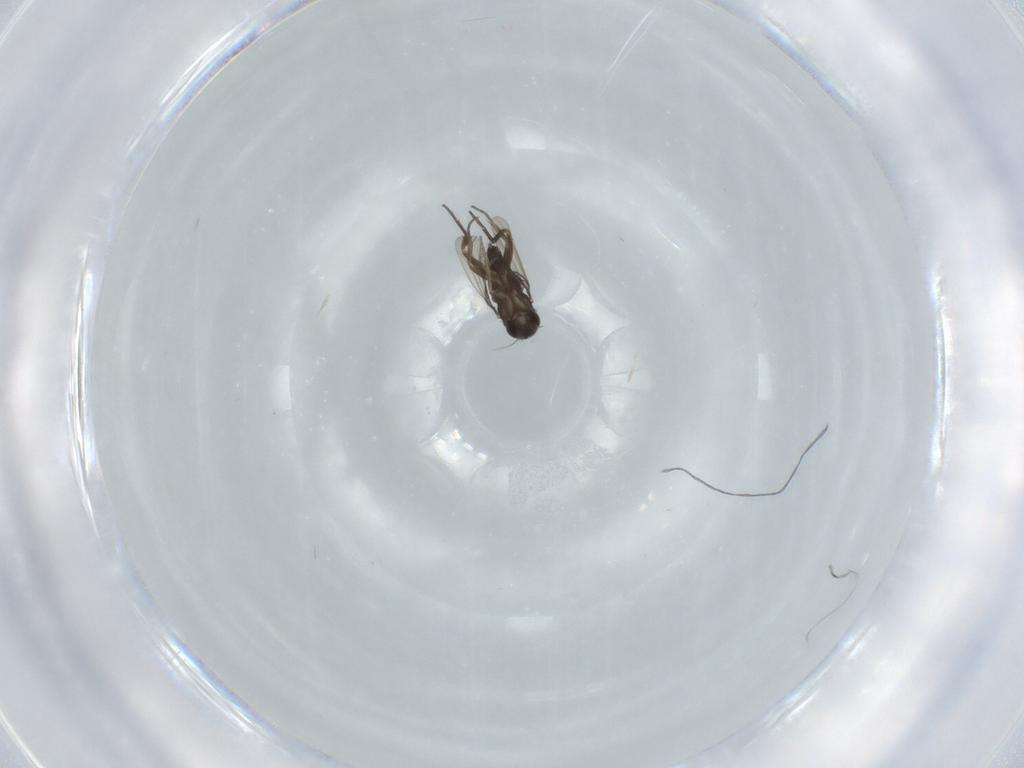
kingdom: Animalia
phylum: Arthropoda
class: Insecta
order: Diptera
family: Phoridae
